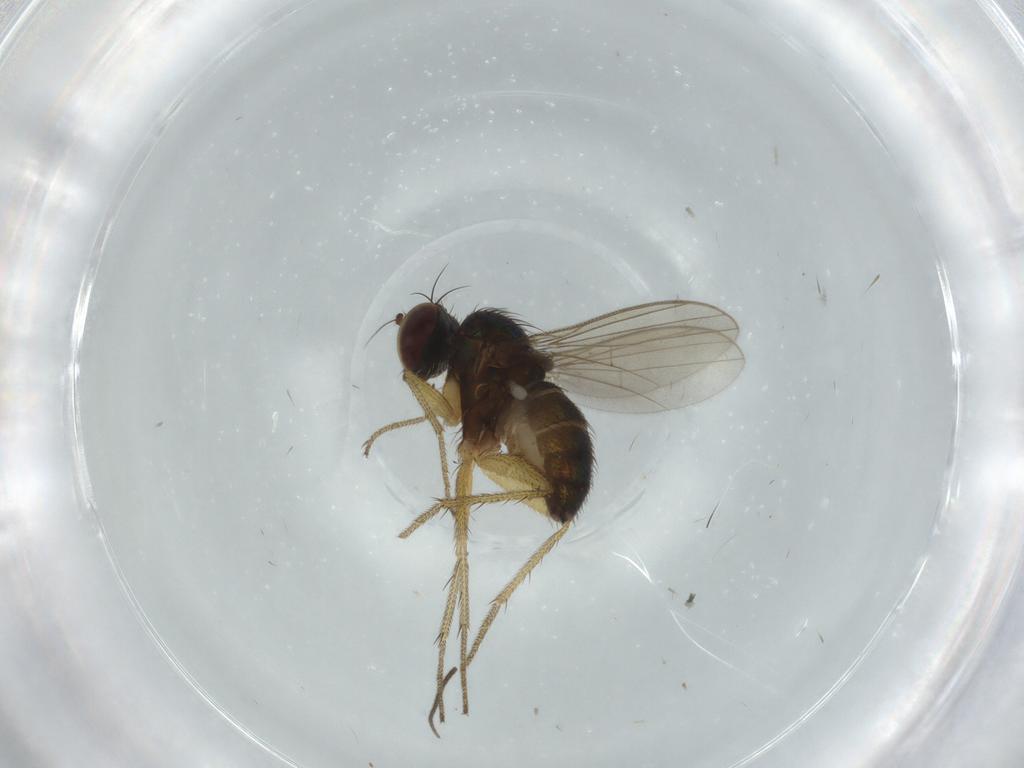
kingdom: Animalia
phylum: Arthropoda
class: Insecta
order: Diptera
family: Dolichopodidae
